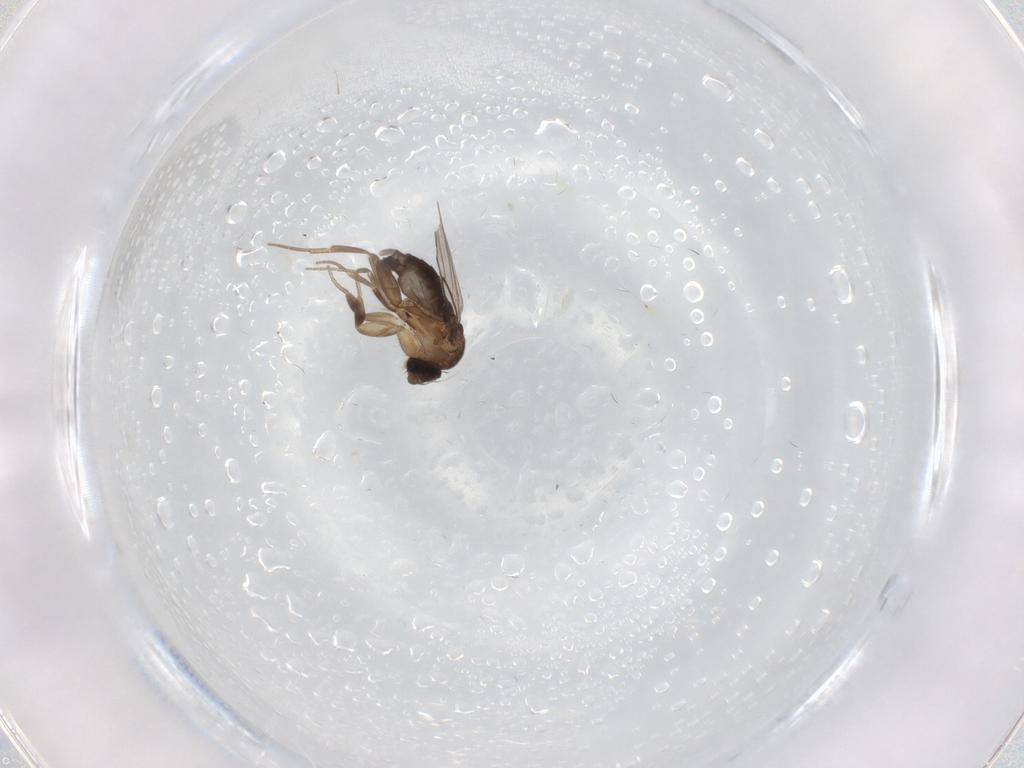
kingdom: Animalia
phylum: Arthropoda
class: Insecta
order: Diptera
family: Phoridae
